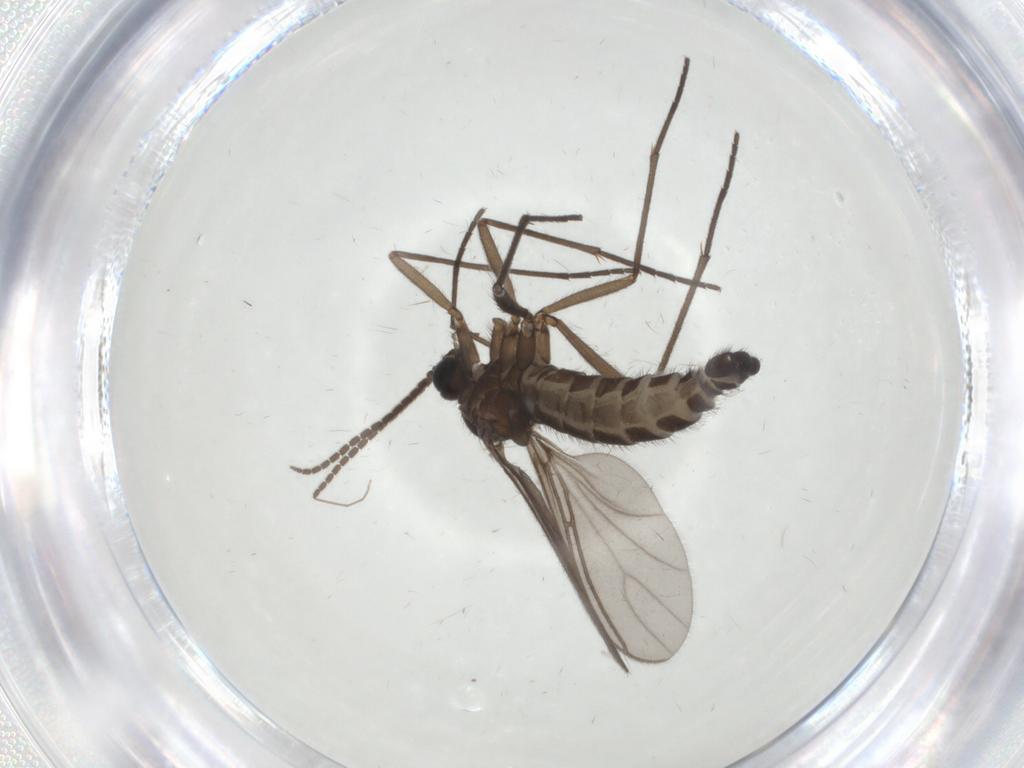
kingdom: Animalia
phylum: Arthropoda
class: Insecta
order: Diptera
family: Sciaridae
